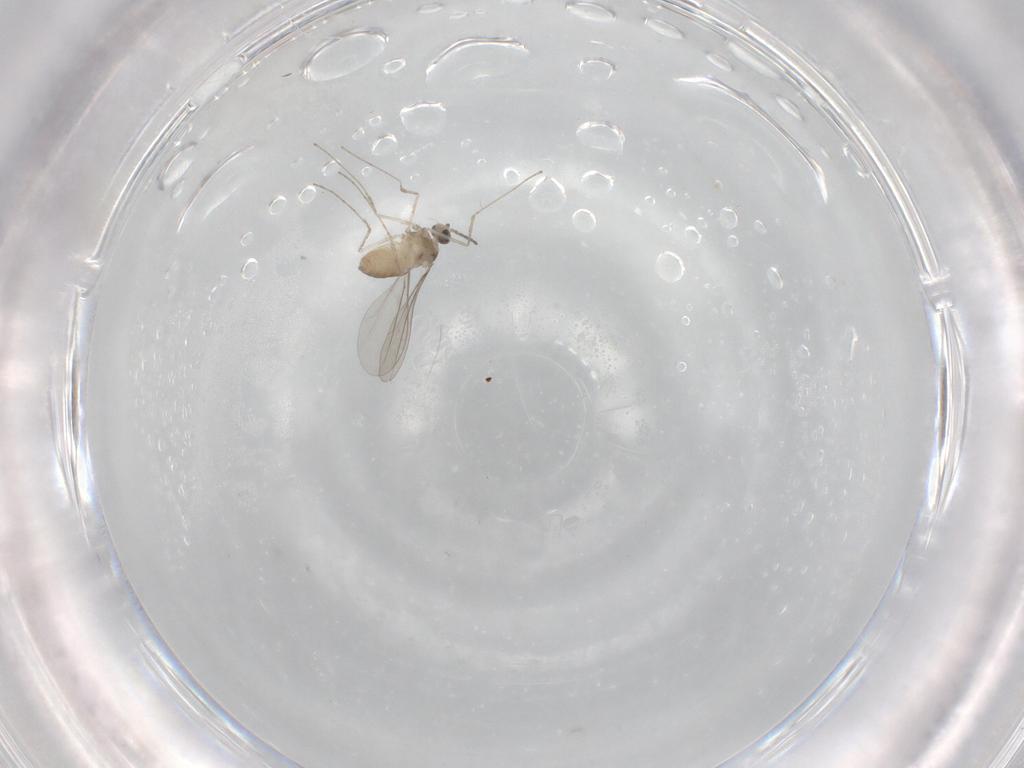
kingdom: Animalia
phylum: Arthropoda
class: Insecta
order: Diptera
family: Cecidomyiidae
